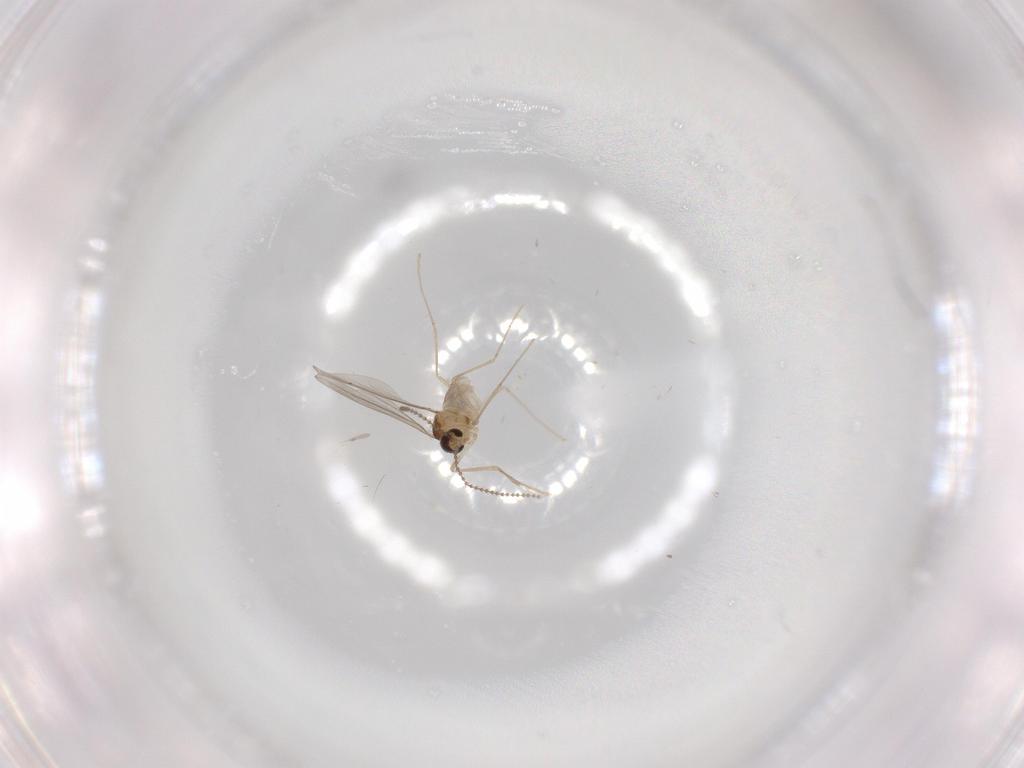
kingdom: Animalia
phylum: Arthropoda
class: Insecta
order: Diptera
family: Cecidomyiidae
